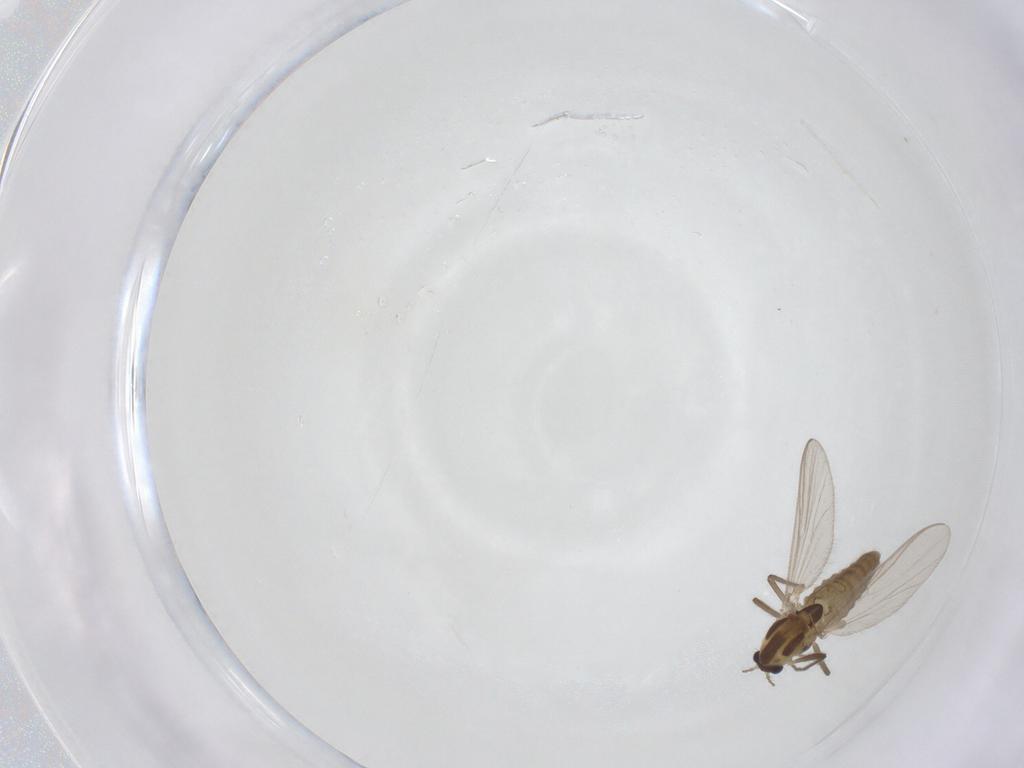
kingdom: Animalia
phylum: Arthropoda
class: Insecta
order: Diptera
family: Chironomidae
